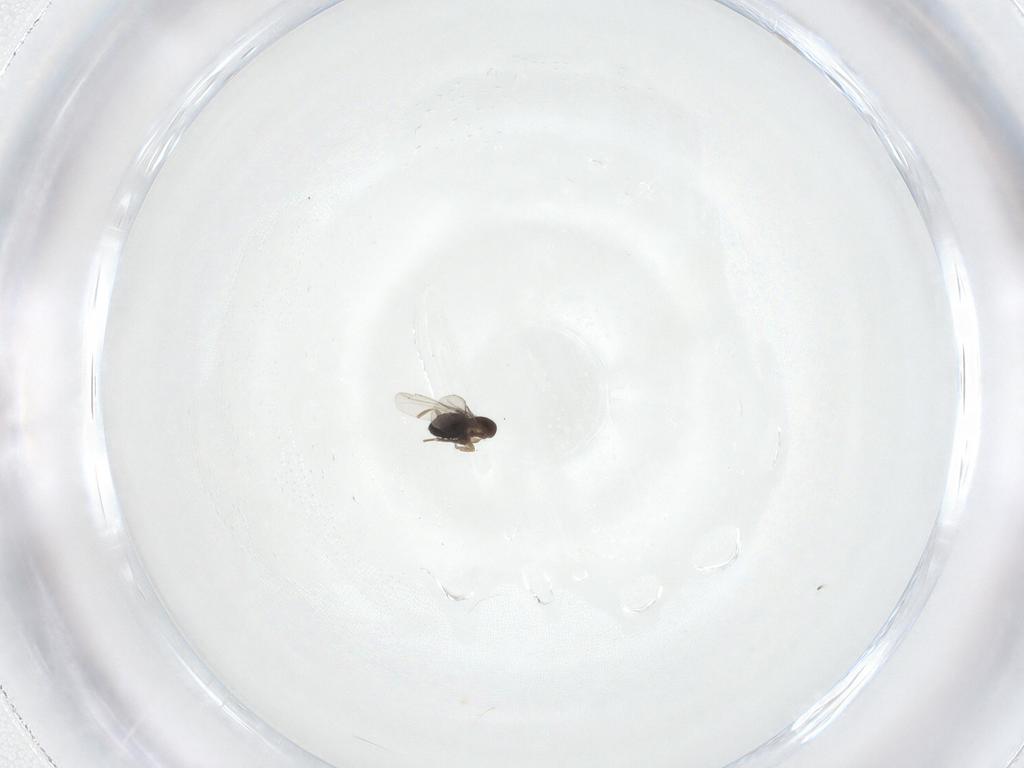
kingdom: Animalia
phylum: Arthropoda
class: Insecta
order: Diptera
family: Phoridae
